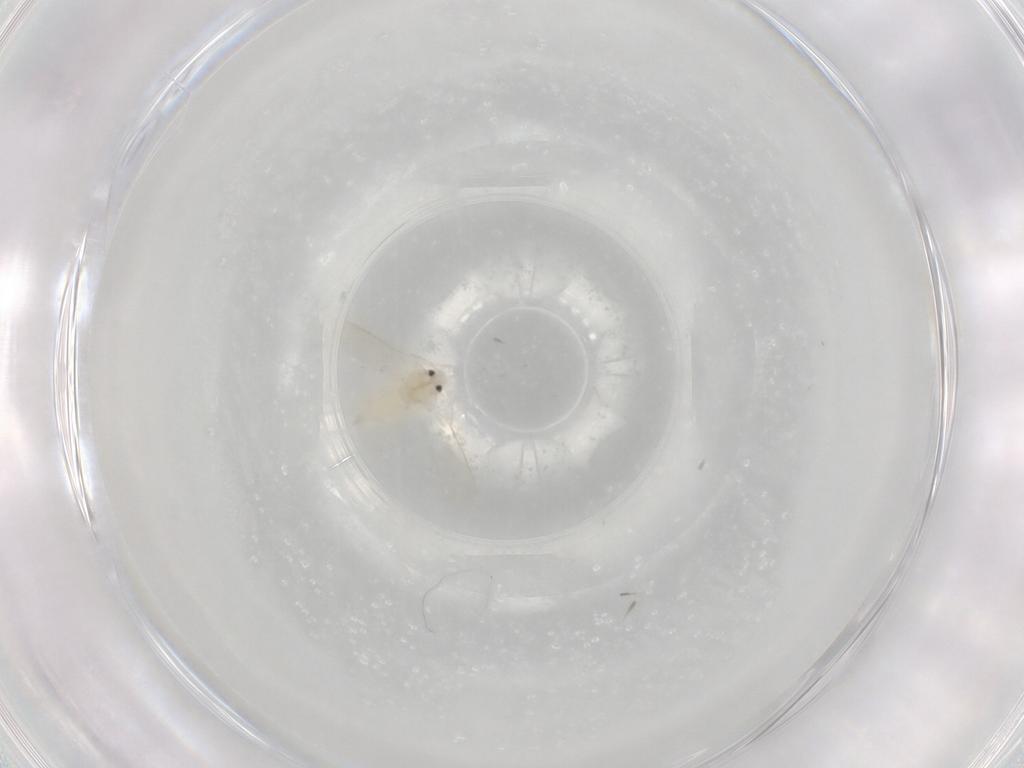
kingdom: Animalia
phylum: Arthropoda
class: Insecta
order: Hemiptera
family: Aleyrodidae
